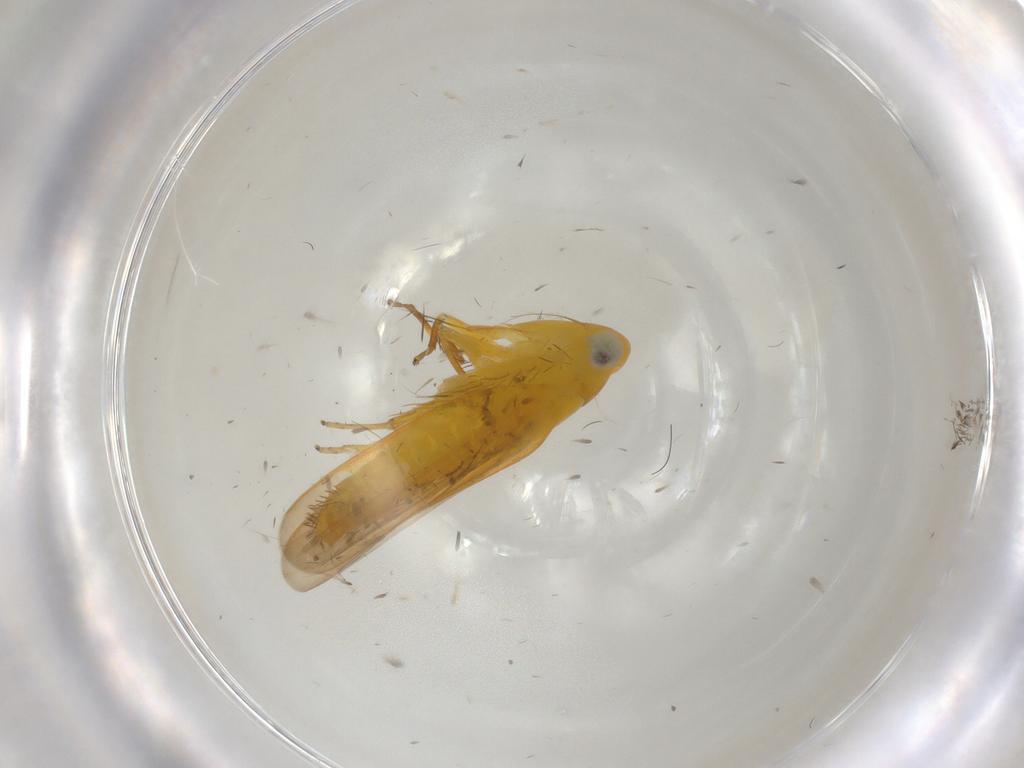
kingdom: Animalia
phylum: Arthropoda
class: Insecta
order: Hemiptera
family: Cicadellidae
